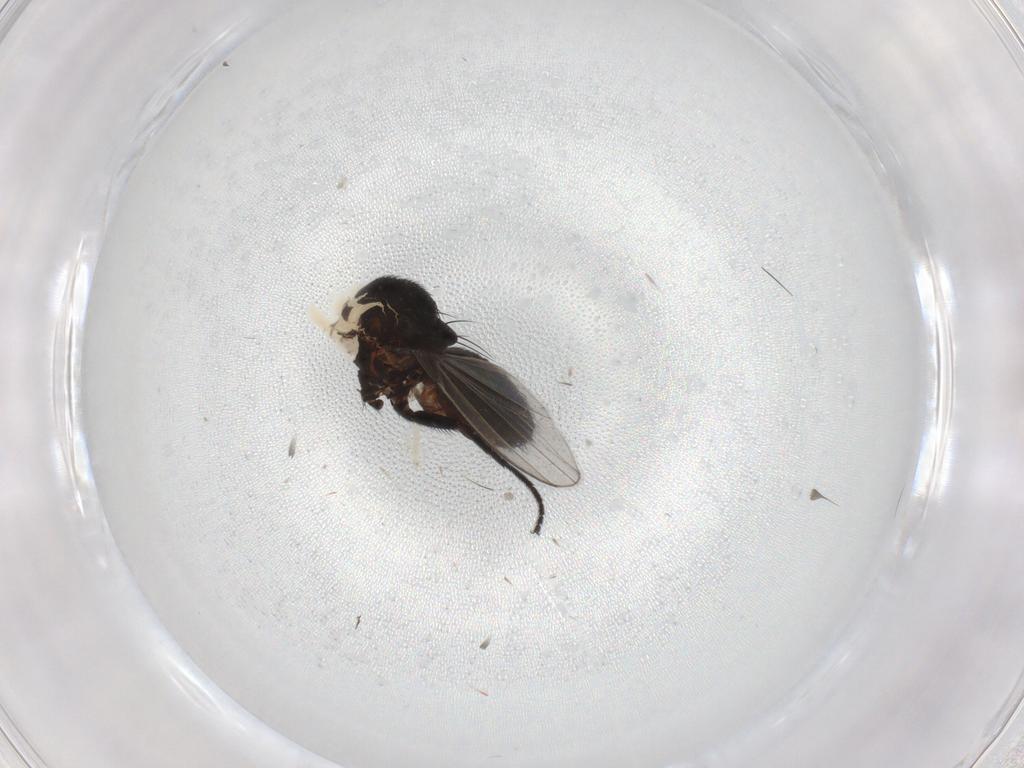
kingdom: Animalia
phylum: Arthropoda
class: Insecta
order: Diptera
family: Milichiidae
